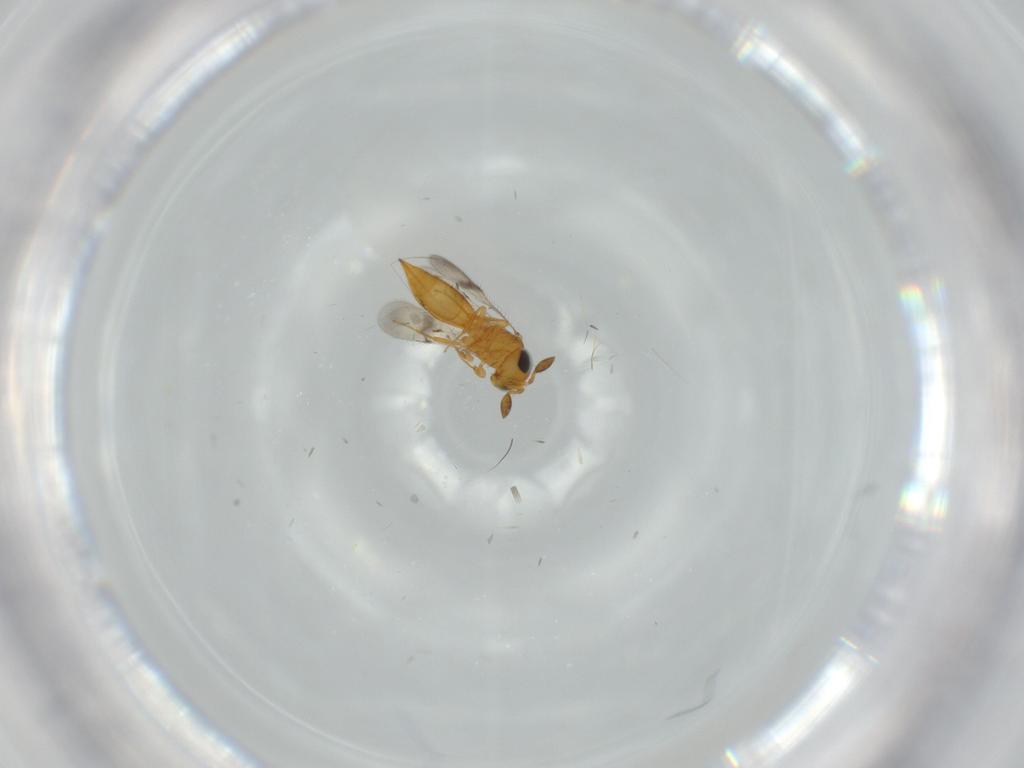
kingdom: Animalia
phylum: Arthropoda
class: Insecta
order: Hymenoptera
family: Scelionidae
